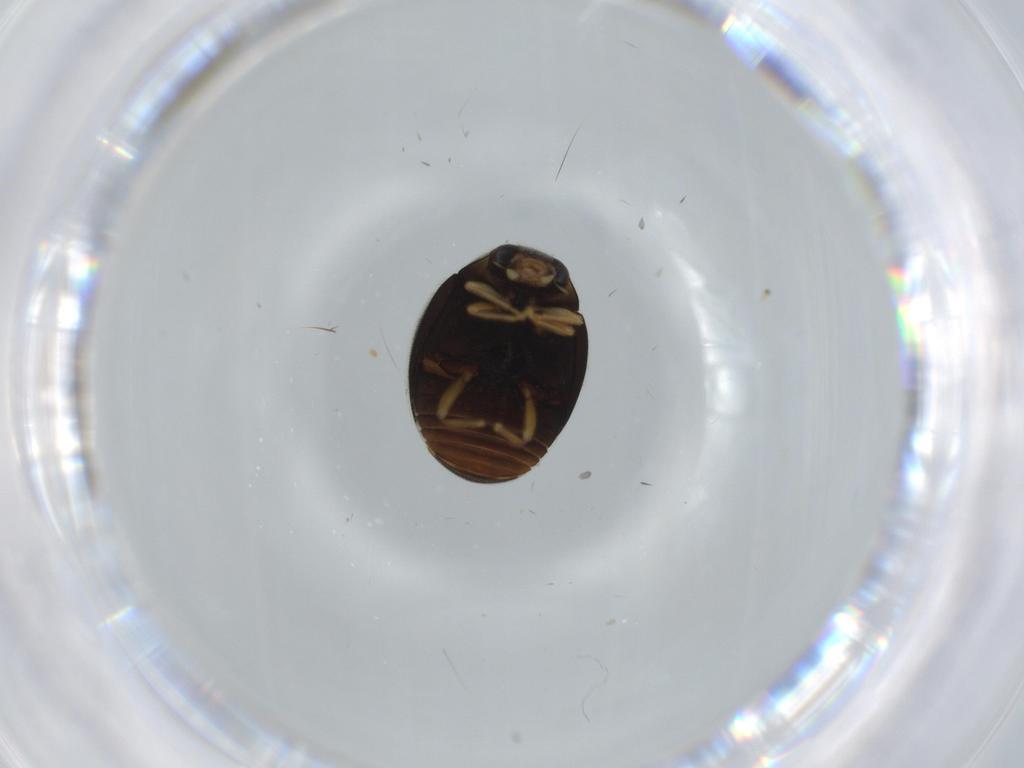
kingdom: Animalia
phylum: Arthropoda
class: Insecta
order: Coleoptera
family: Coccinellidae
